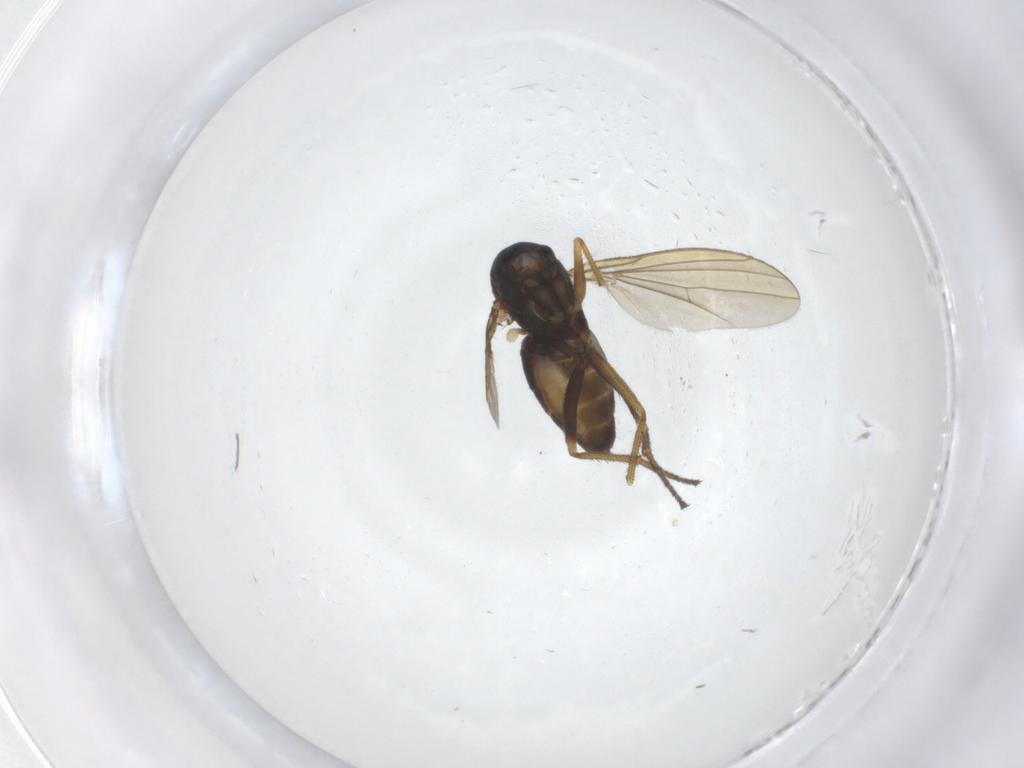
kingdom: Animalia
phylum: Arthropoda
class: Insecta
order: Diptera
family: Dolichopodidae
